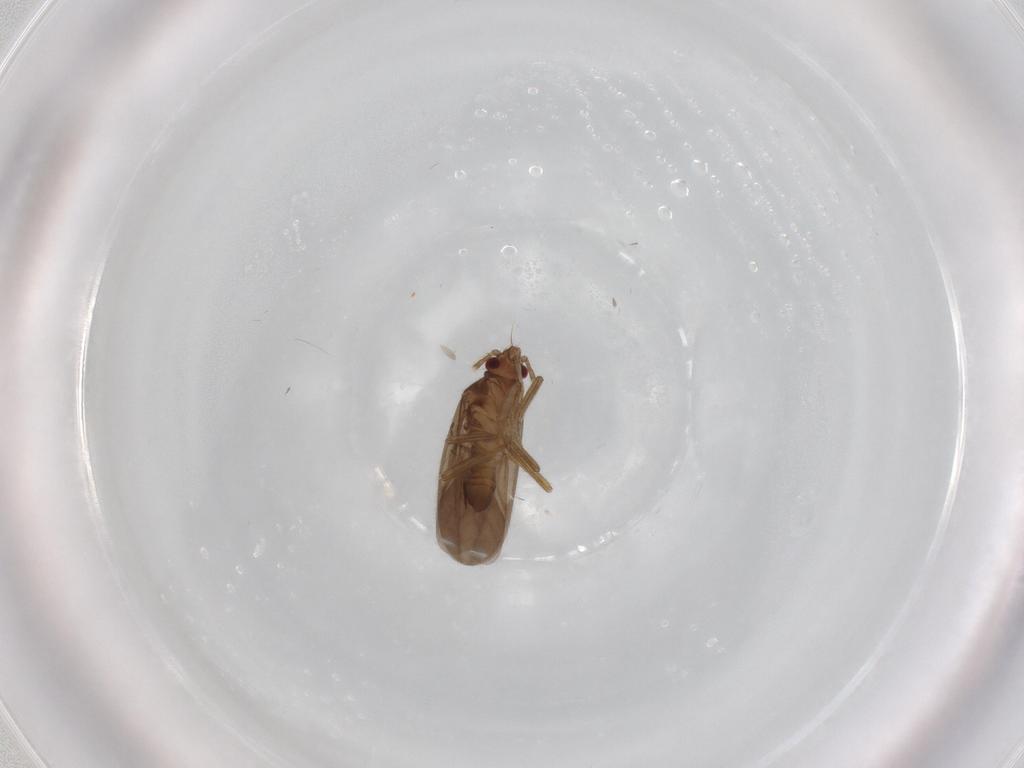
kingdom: Animalia
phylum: Arthropoda
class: Insecta
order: Hemiptera
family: Ceratocombidae
